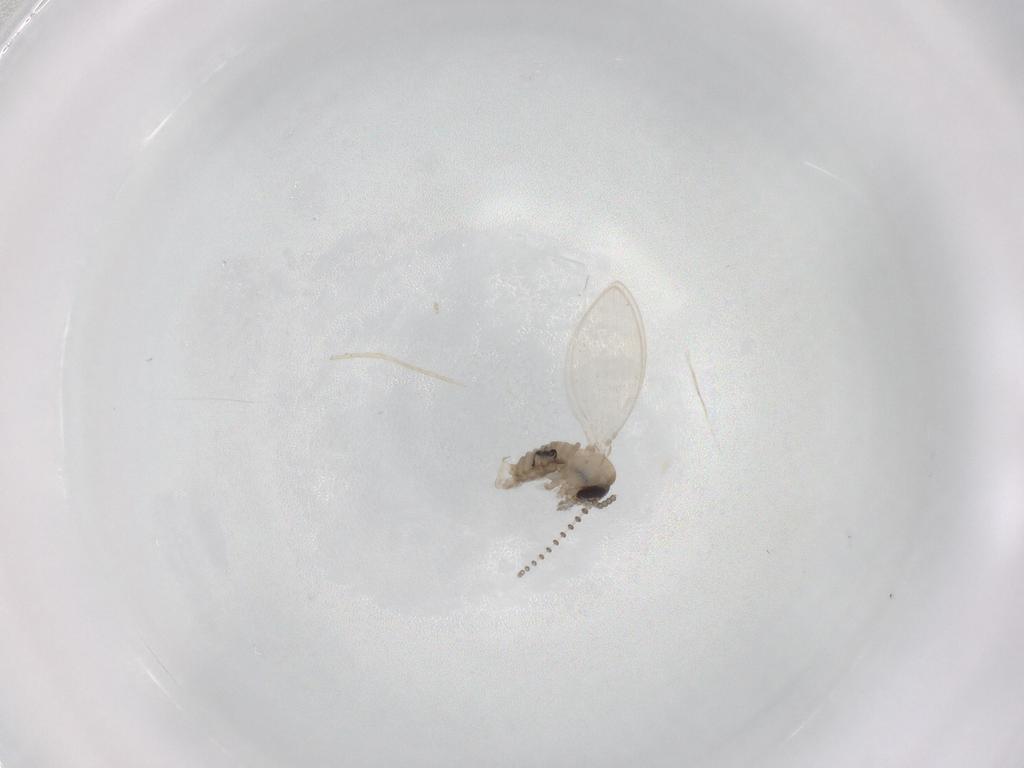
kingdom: Animalia
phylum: Arthropoda
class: Insecta
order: Diptera
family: Psychodidae
